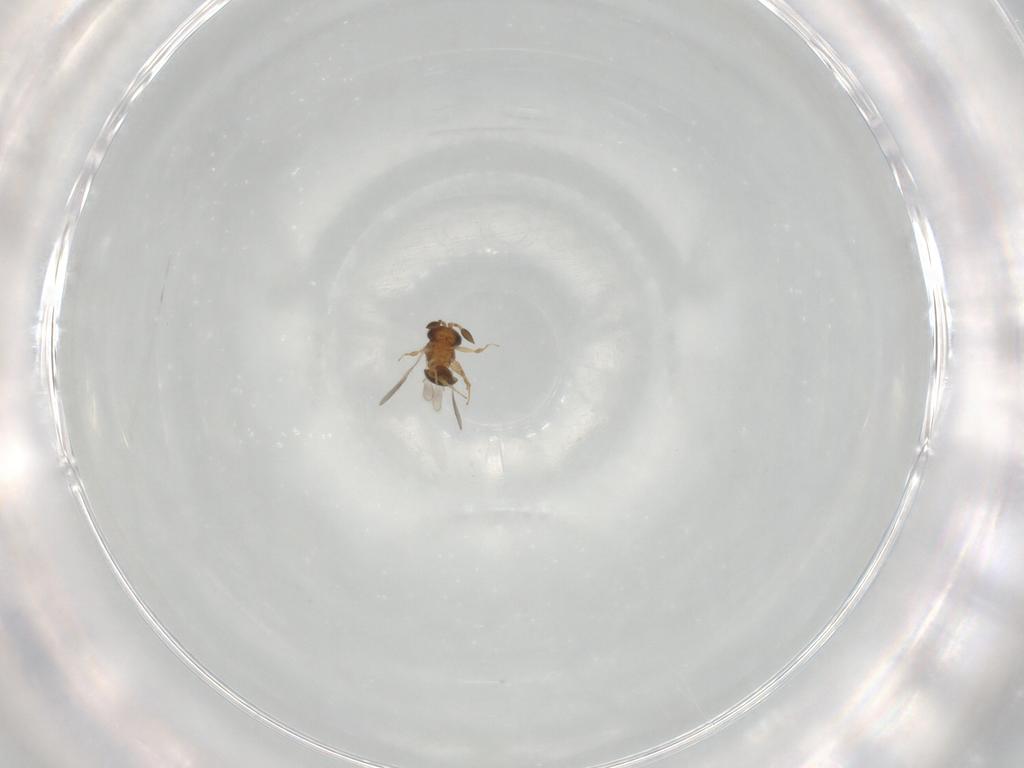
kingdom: Animalia
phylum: Arthropoda
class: Insecta
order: Hymenoptera
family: Scelionidae
